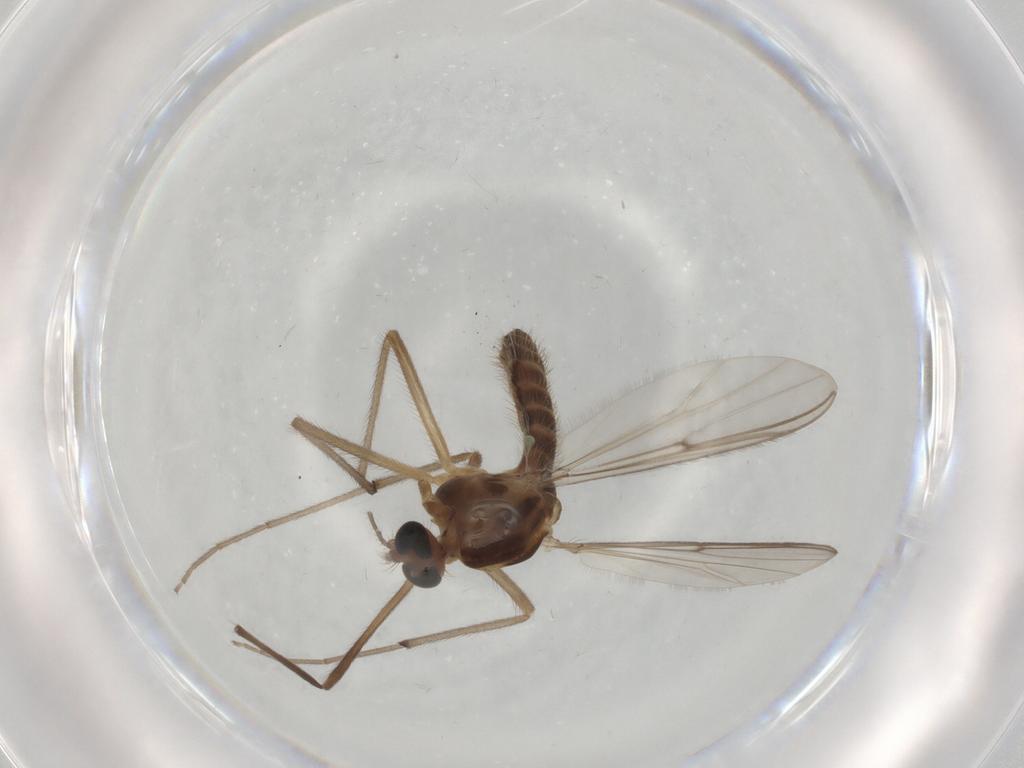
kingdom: Animalia
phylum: Arthropoda
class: Insecta
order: Diptera
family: Chironomidae
